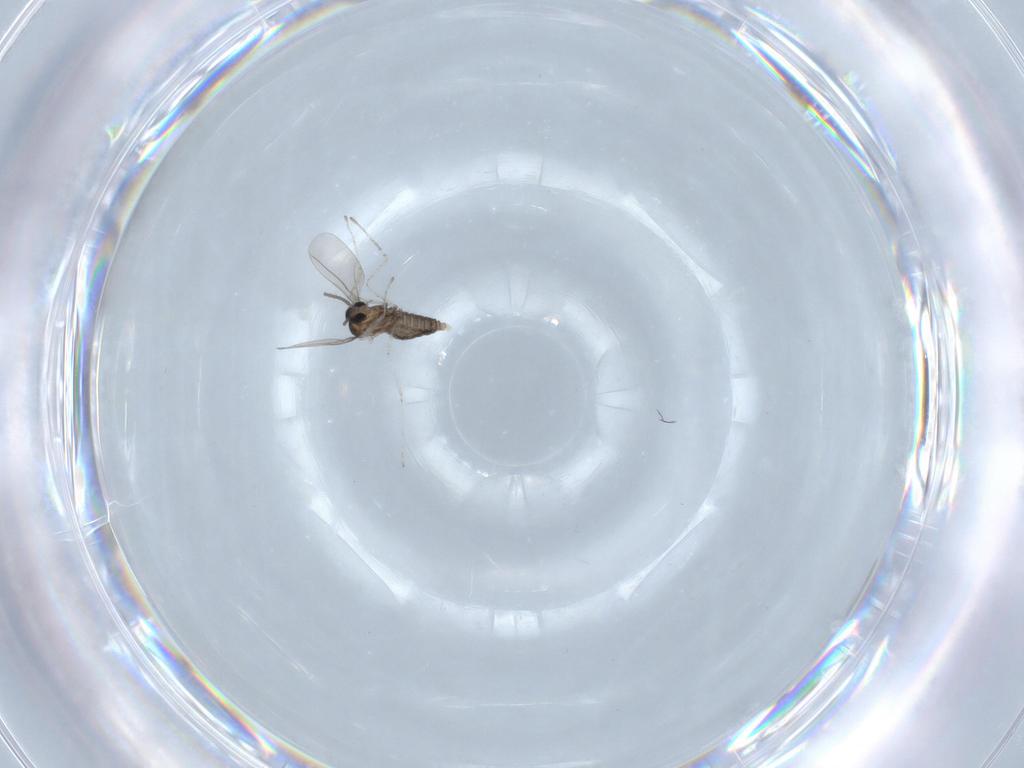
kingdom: Animalia
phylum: Arthropoda
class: Insecta
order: Diptera
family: Cecidomyiidae
